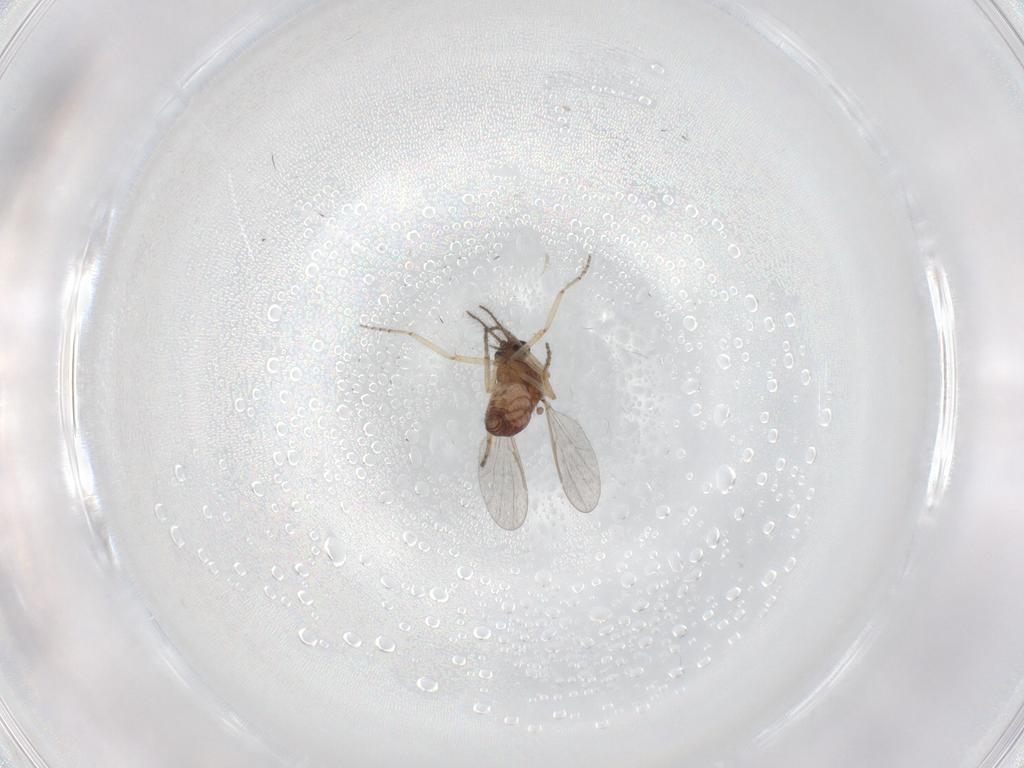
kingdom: Animalia
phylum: Arthropoda
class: Insecta
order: Diptera
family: Ceratopogonidae
